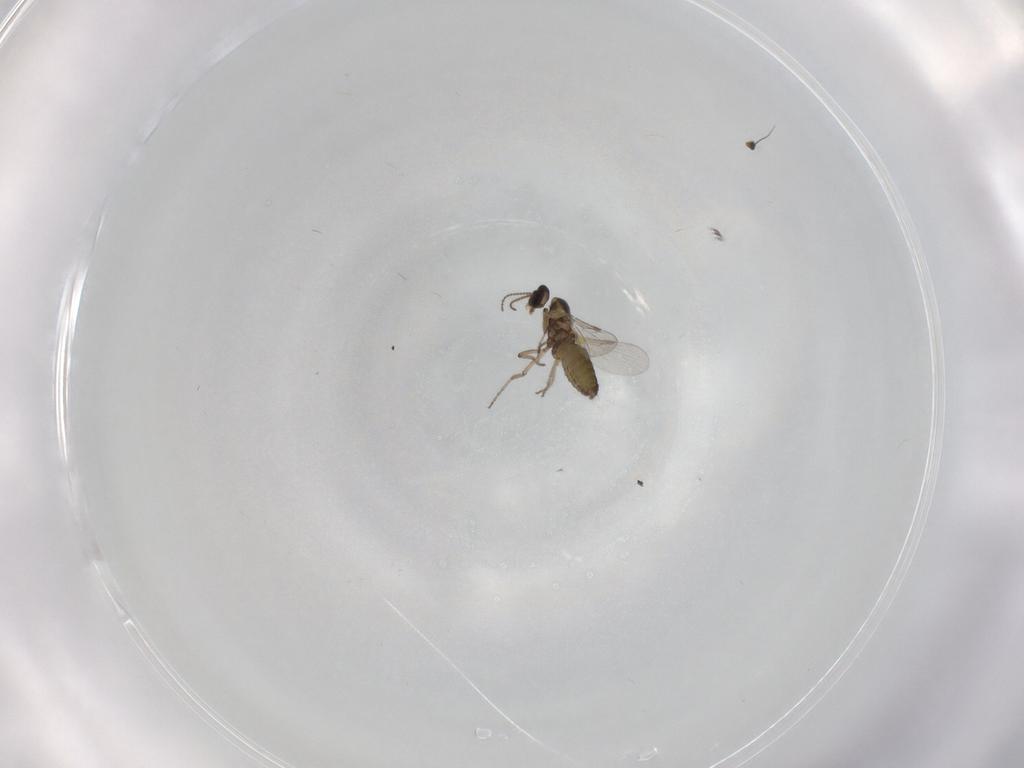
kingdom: Animalia
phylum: Arthropoda
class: Insecta
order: Diptera
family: Ceratopogonidae
